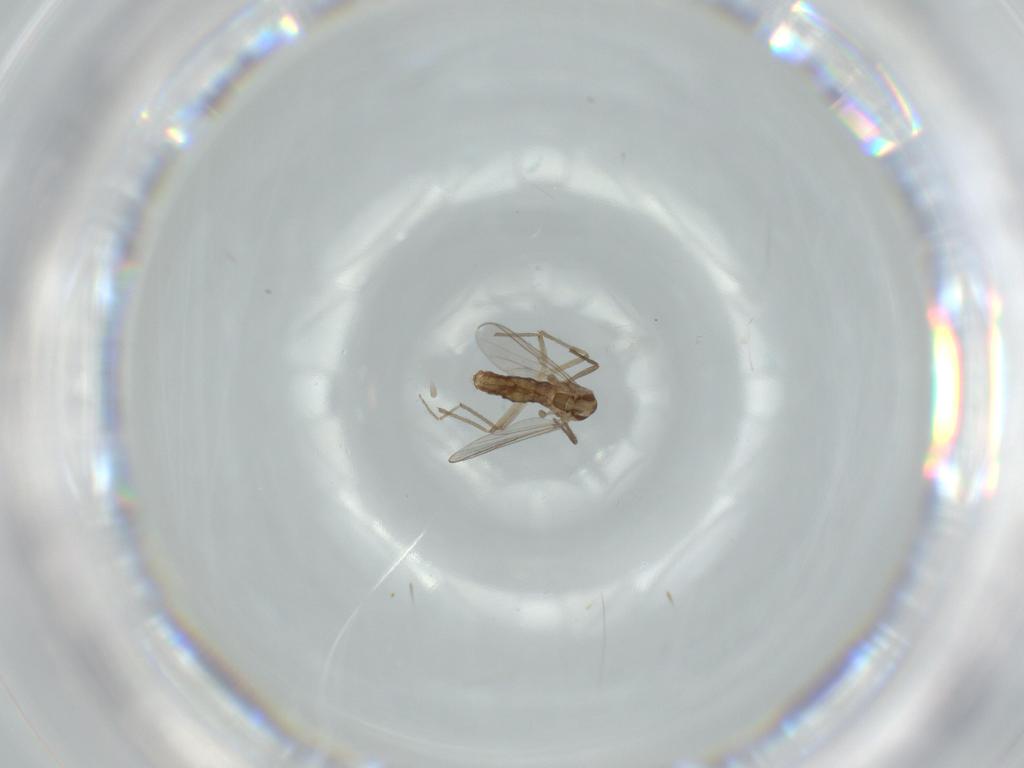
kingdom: Animalia
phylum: Arthropoda
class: Insecta
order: Diptera
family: Chironomidae
